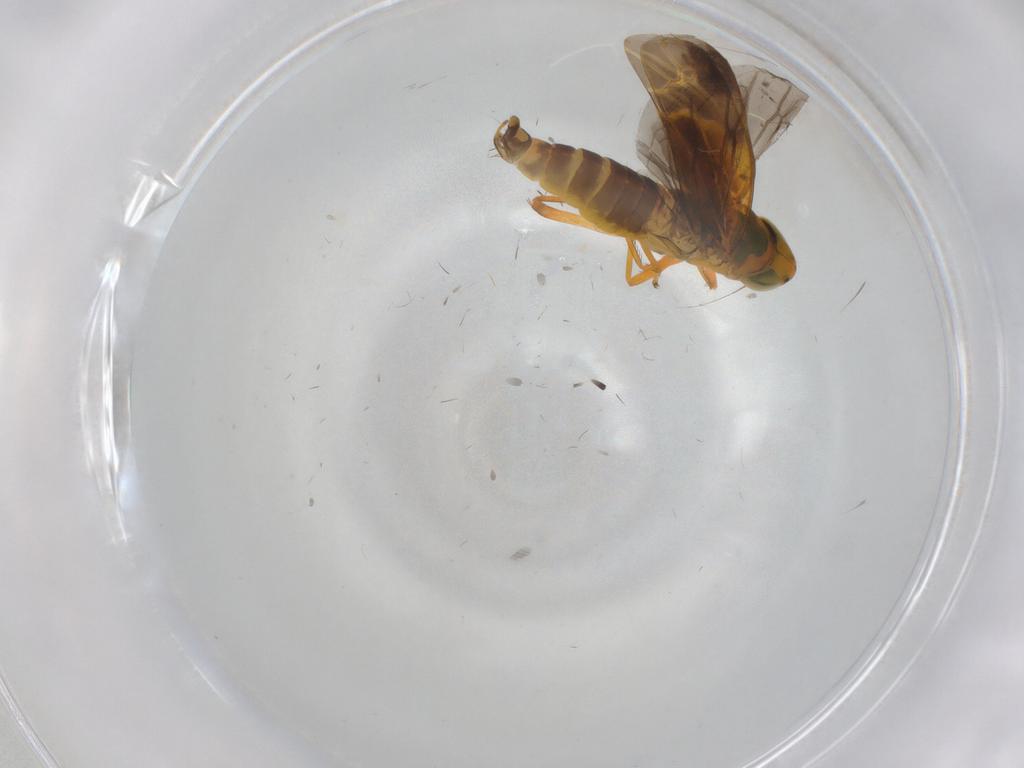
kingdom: Animalia
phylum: Arthropoda
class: Insecta
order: Hemiptera
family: Cicadellidae
